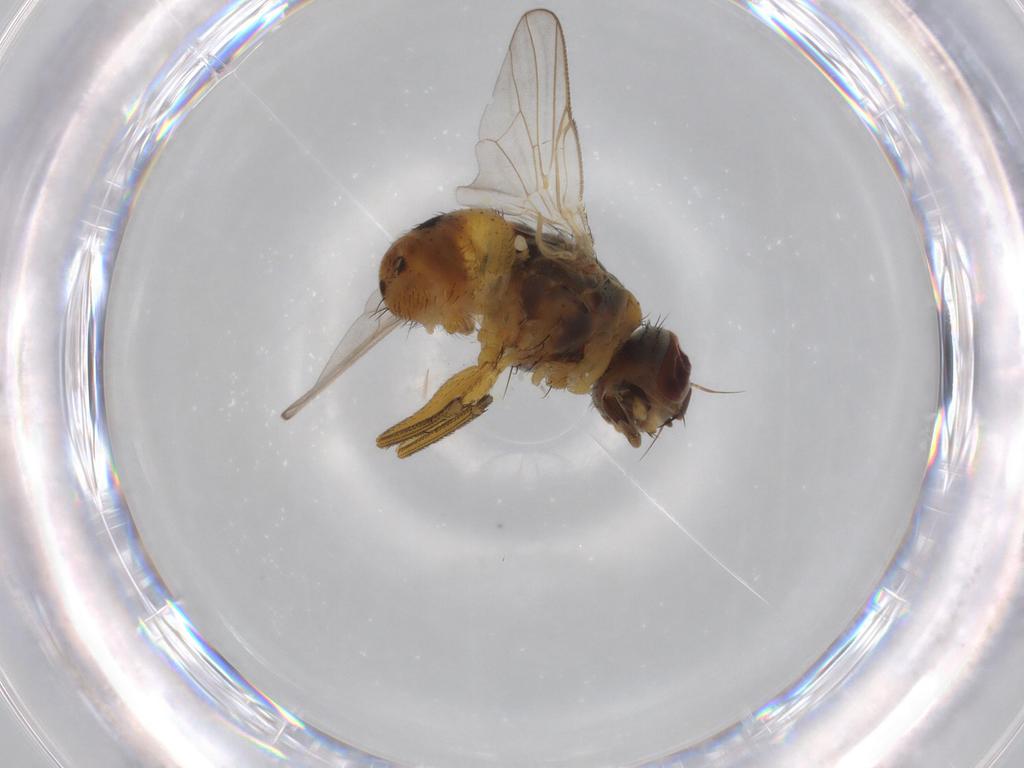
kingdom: Animalia
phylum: Arthropoda
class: Insecta
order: Diptera
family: Muscidae
